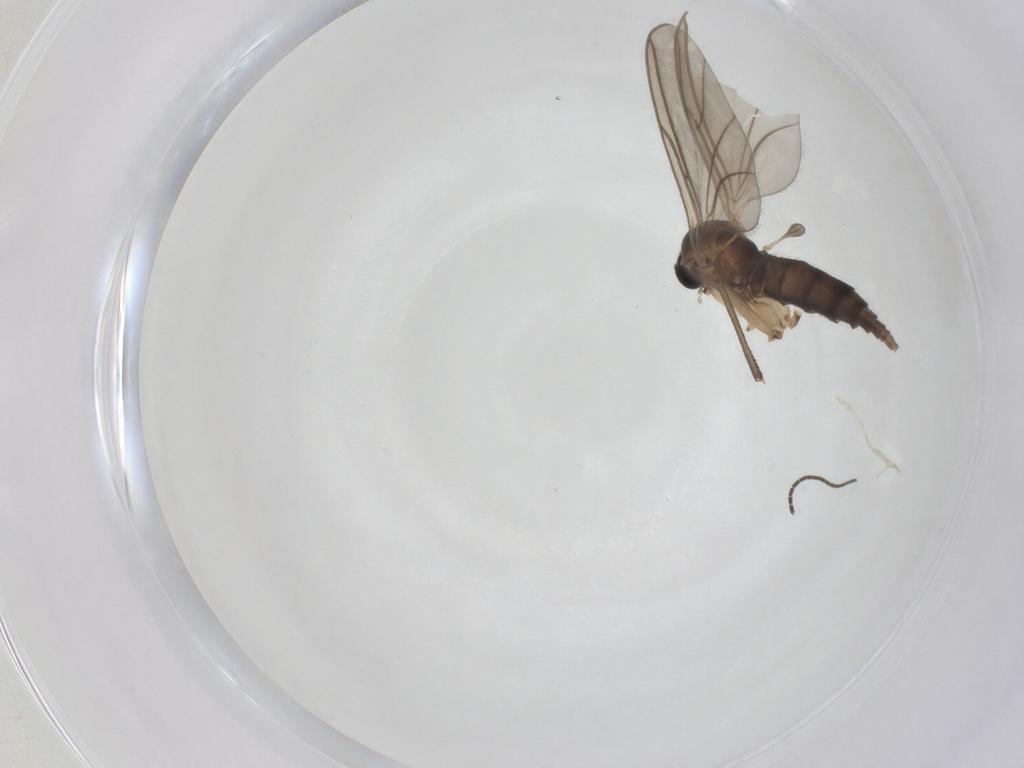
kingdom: Animalia
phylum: Arthropoda
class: Insecta
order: Diptera
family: Sciaridae
